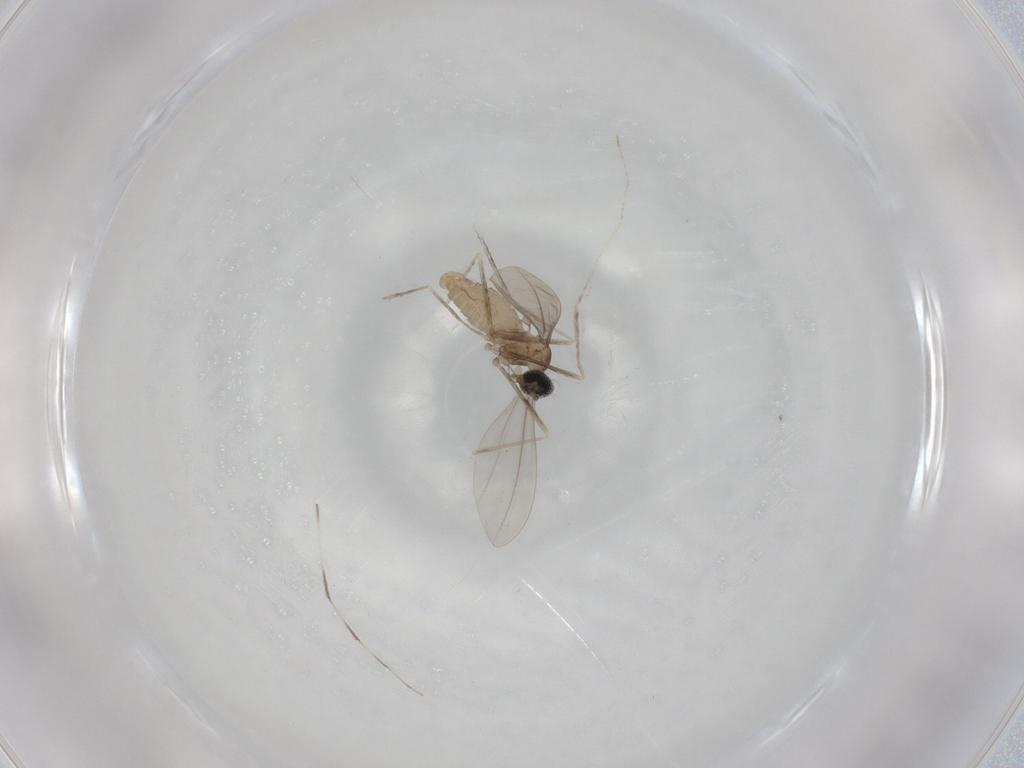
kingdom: Animalia
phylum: Arthropoda
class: Insecta
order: Diptera
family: Cecidomyiidae
